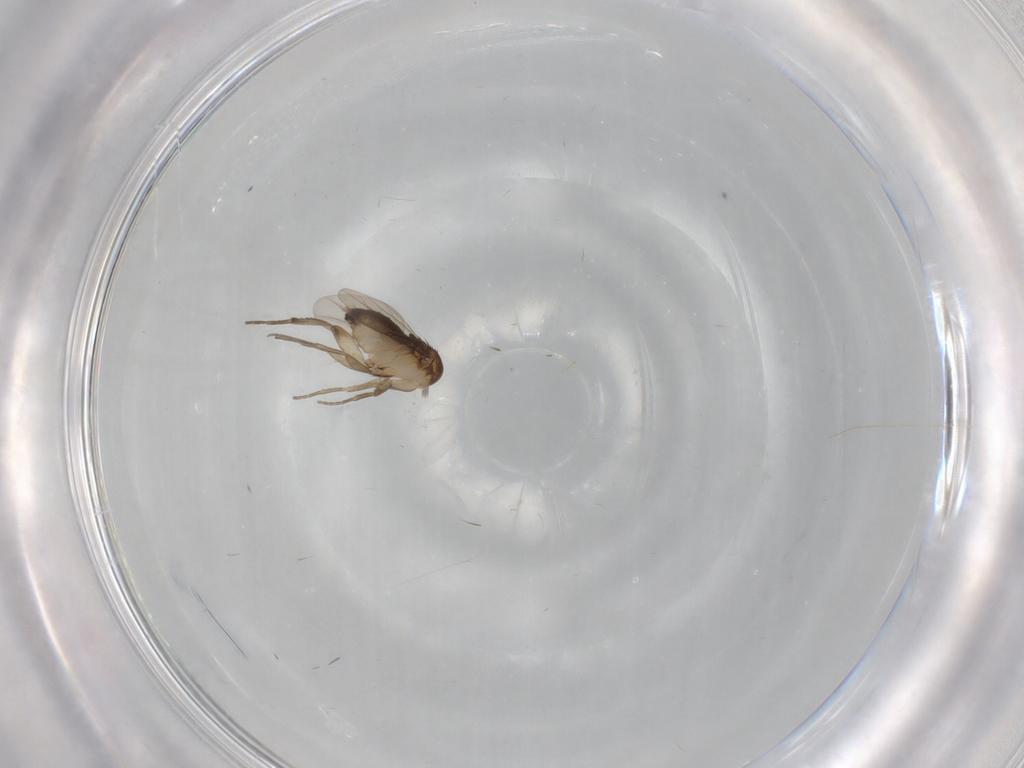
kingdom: Animalia
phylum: Arthropoda
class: Insecta
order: Diptera
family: Phoridae
